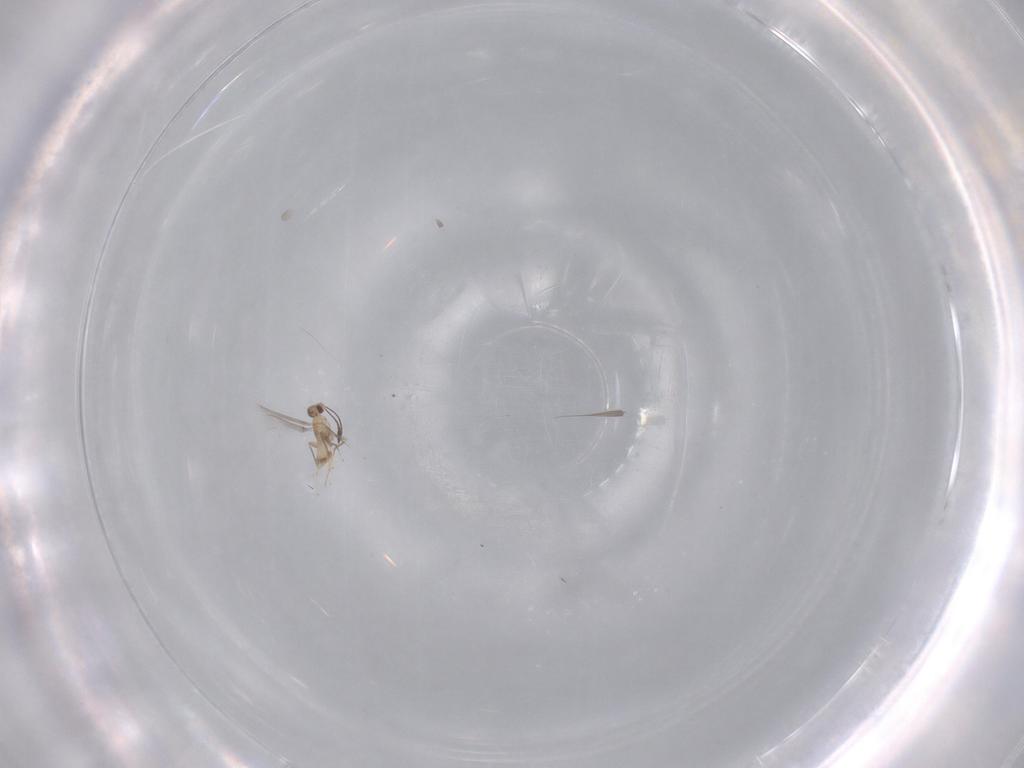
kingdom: Animalia
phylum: Arthropoda
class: Insecta
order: Hymenoptera
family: Mymaridae
